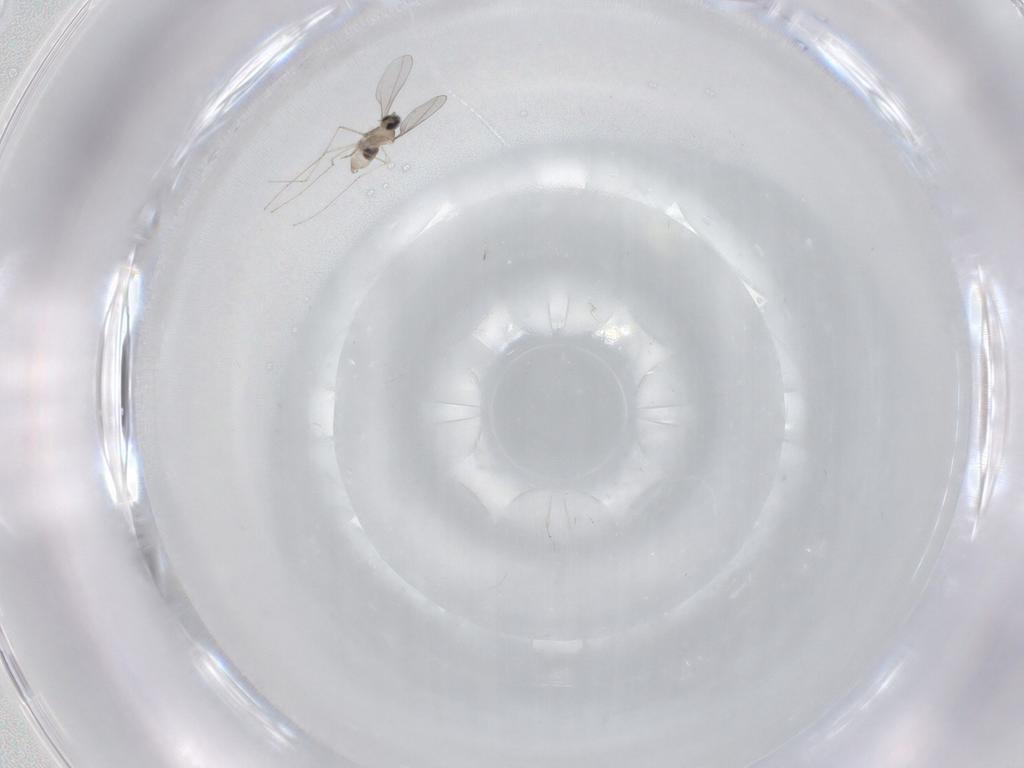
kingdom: Animalia
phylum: Arthropoda
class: Insecta
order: Diptera
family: Cecidomyiidae
